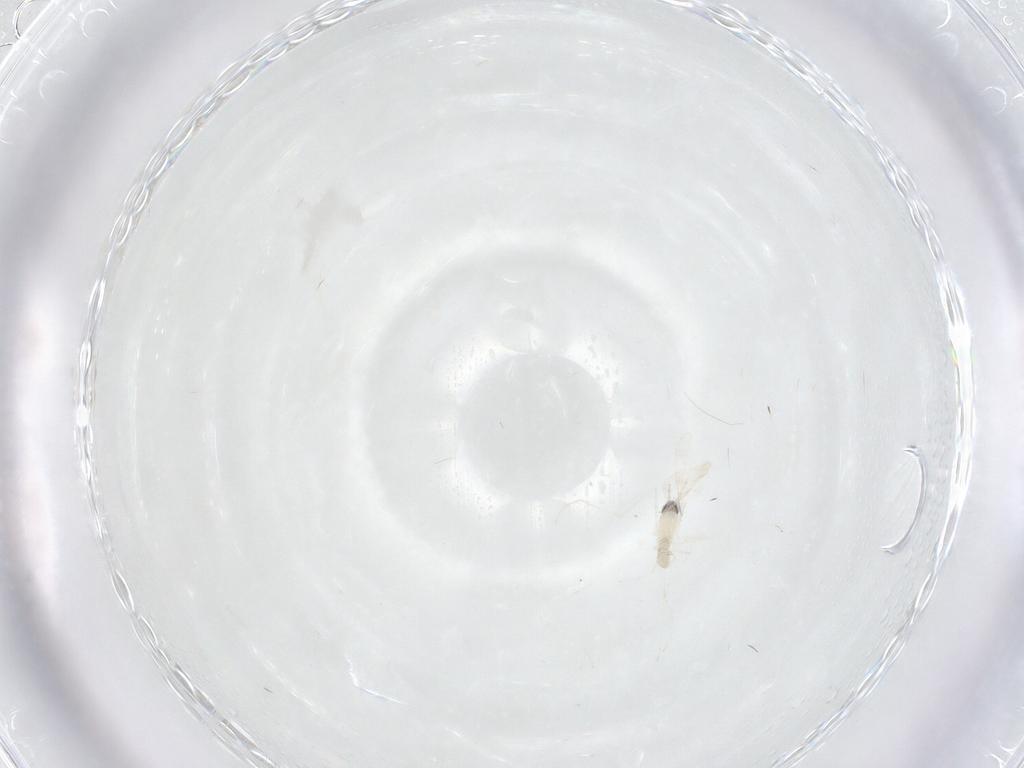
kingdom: Animalia
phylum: Arthropoda
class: Insecta
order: Diptera
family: Cecidomyiidae
